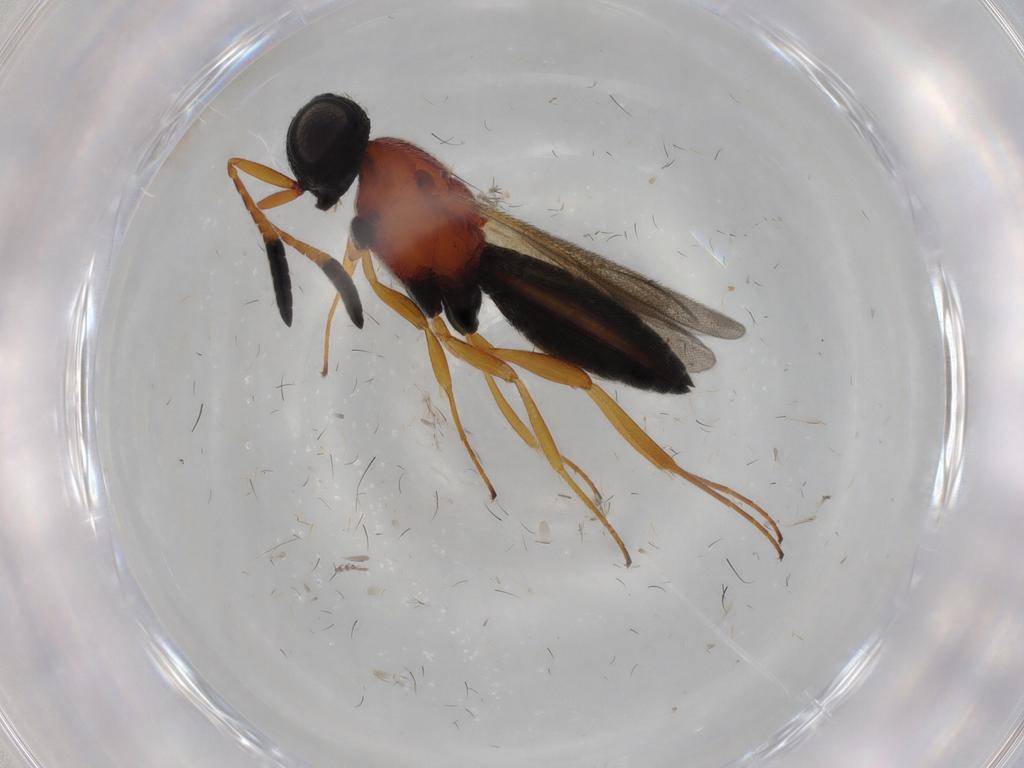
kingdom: Animalia
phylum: Arthropoda
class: Insecta
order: Hymenoptera
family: Scelionidae
